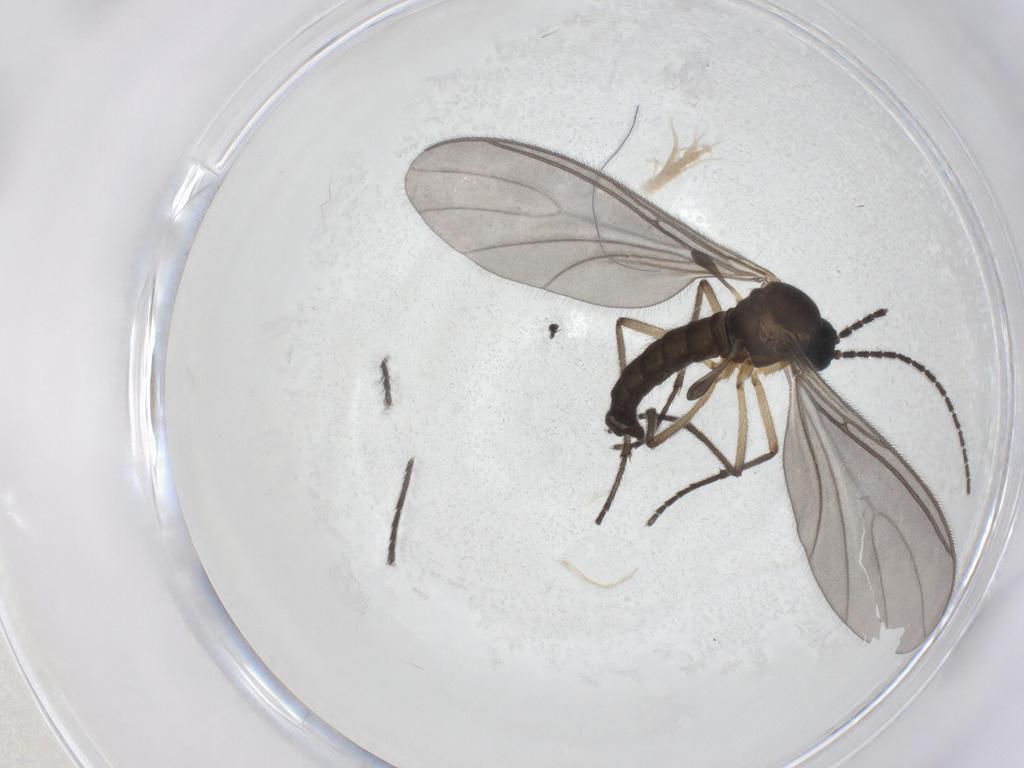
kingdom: Animalia
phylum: Arthropoda
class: Insecta
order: Diptera
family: Sciaridae
